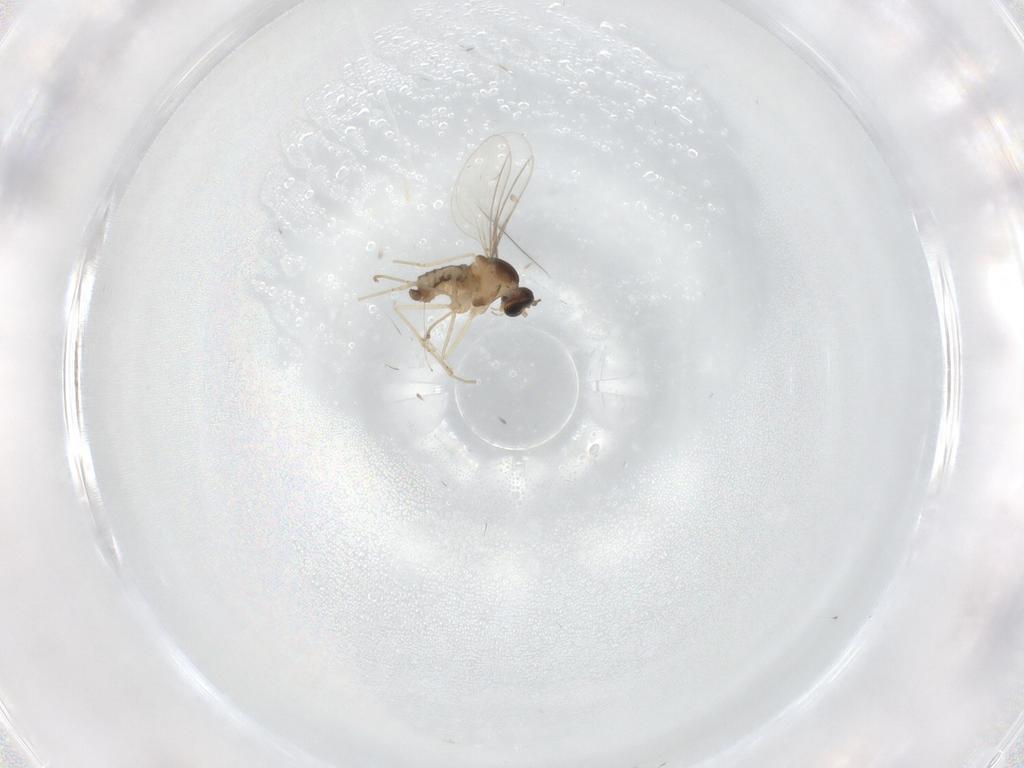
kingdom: Animalia
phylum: Arthropoda
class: Insecta
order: Diptera
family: Cecidomyiidae
